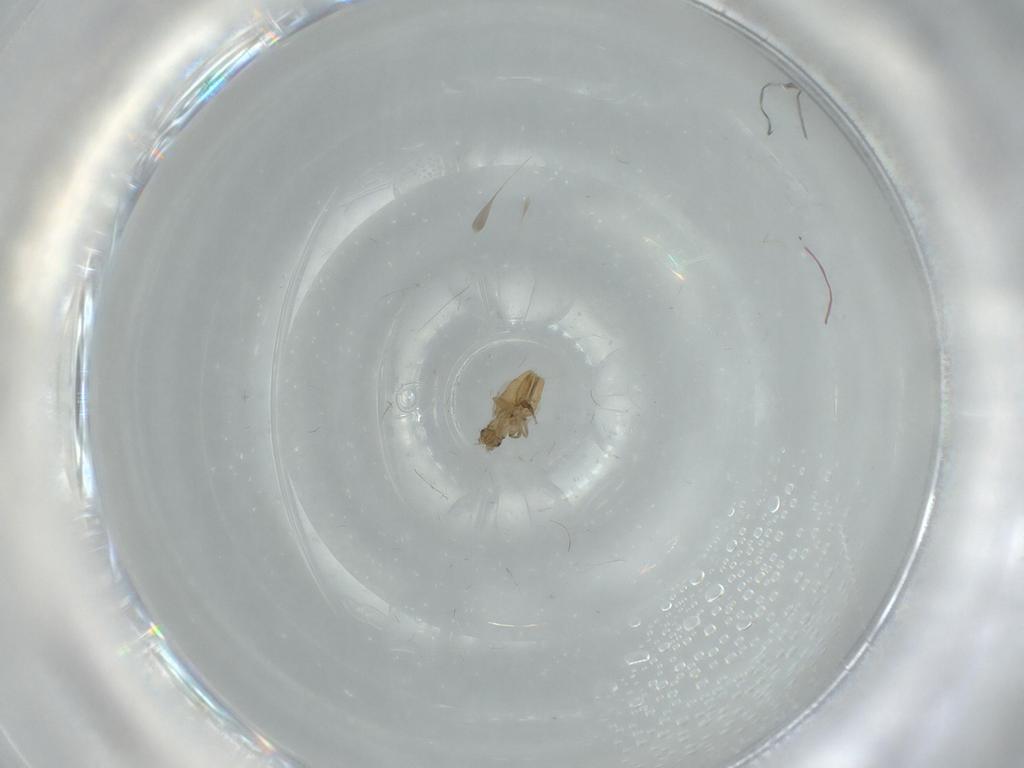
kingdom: Animalia
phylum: Arthropoda
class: Insecta
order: Diptera
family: Phoridae
